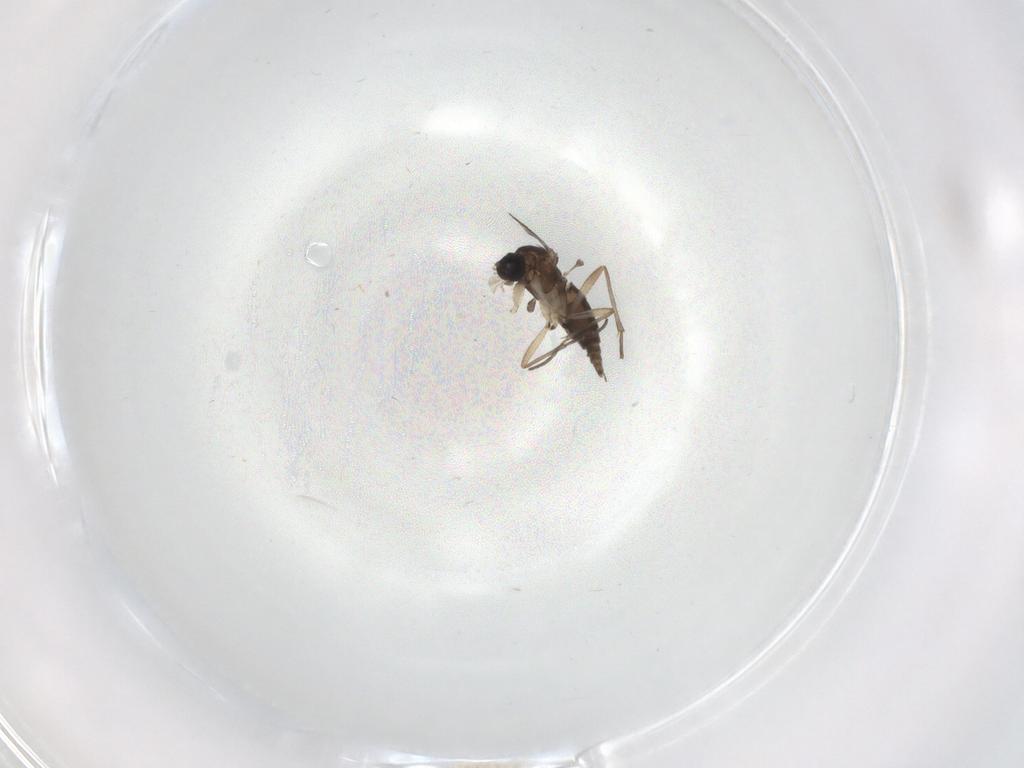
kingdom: Animalia
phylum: Arthropoda
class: Insecta
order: Diptera
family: Sciaridae
